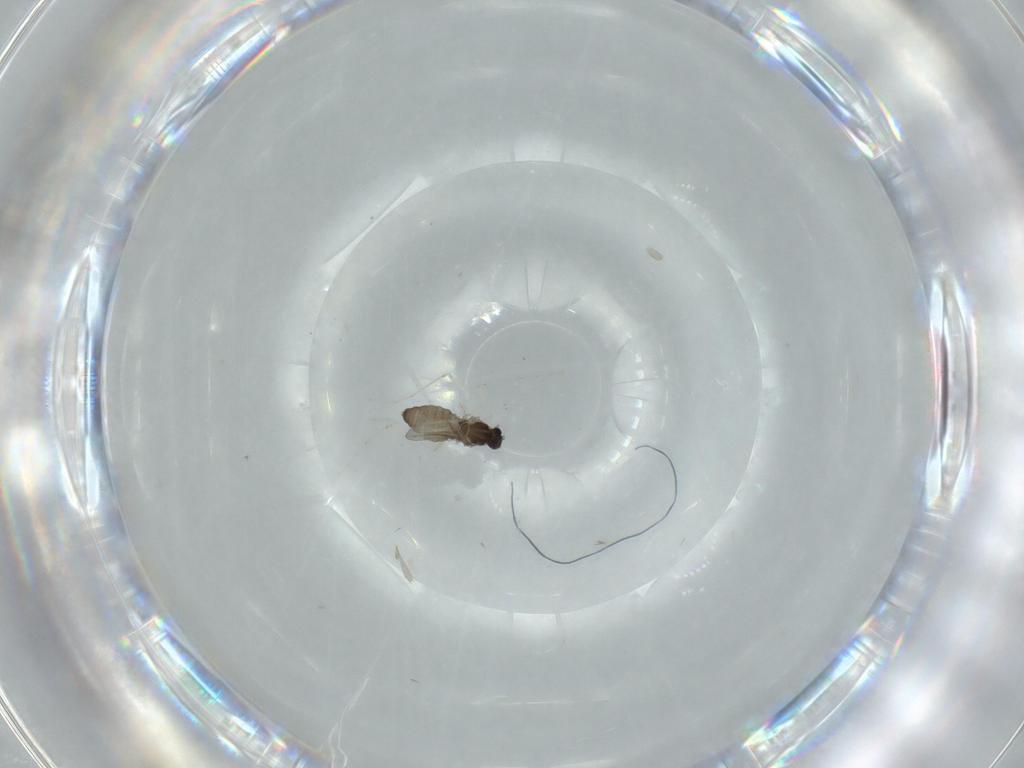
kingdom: Animalia
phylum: Arthropoda
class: Insecta
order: Diptera
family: Cecidomyiidae
